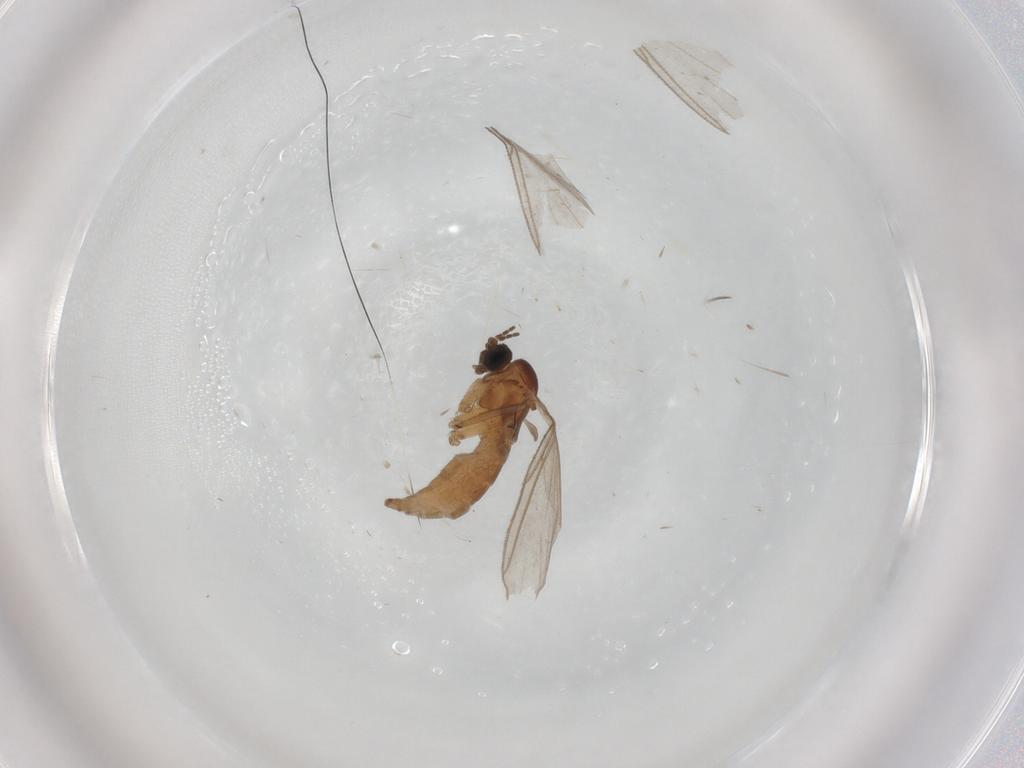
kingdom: Animalia
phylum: Arthropoda
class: Insecta
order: Diptera
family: Sciaridae
